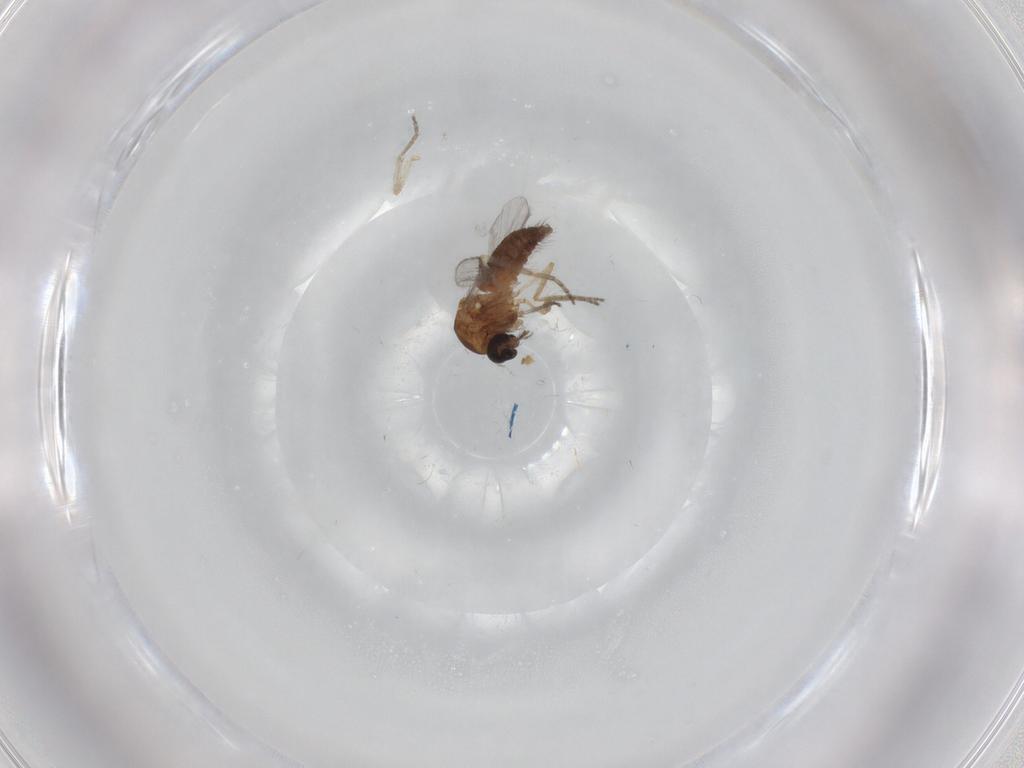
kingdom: Animalia
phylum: Arthropoda
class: Insecta
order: Diptera
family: Ceratopogonidae
